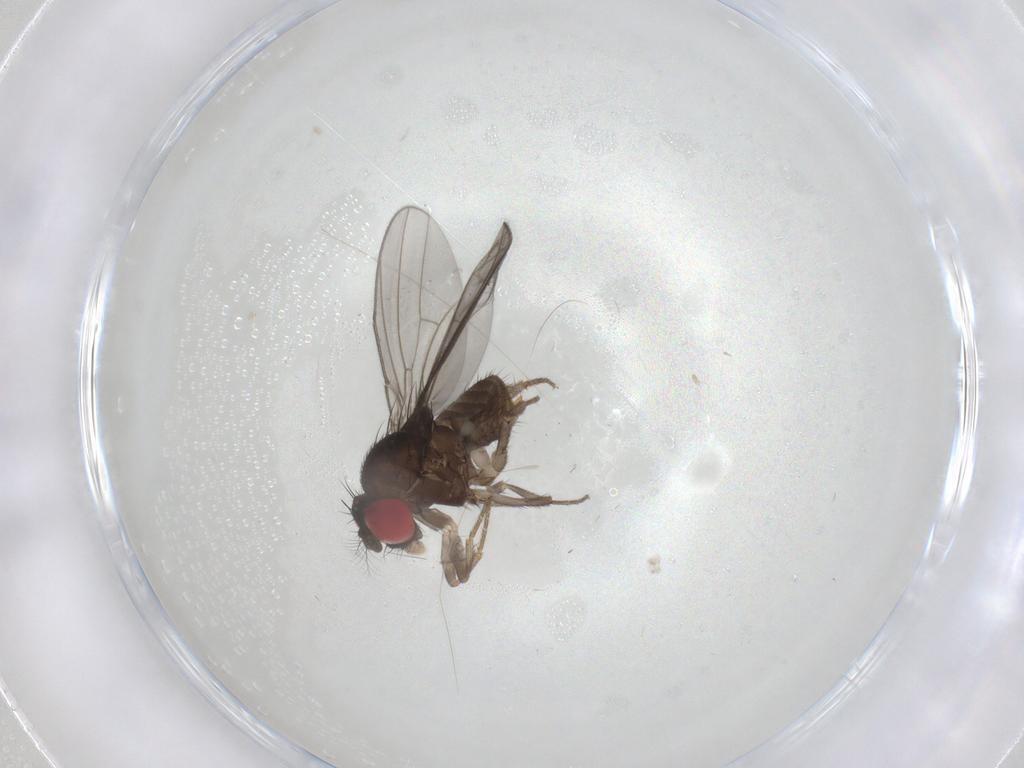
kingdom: Animalia
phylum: Arthropoda
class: Insecta
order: Diptera
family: Drosophilidae
